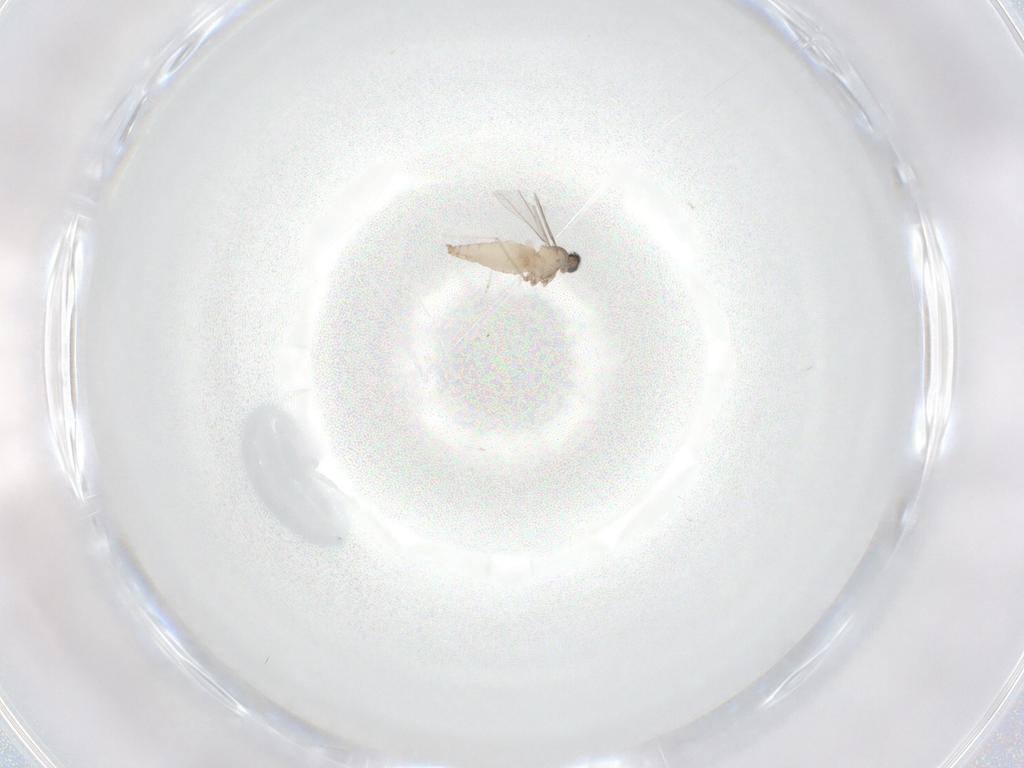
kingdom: Animalia
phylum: Arthropoda
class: Insecta
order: Diptera
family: Cecidomyiidae
